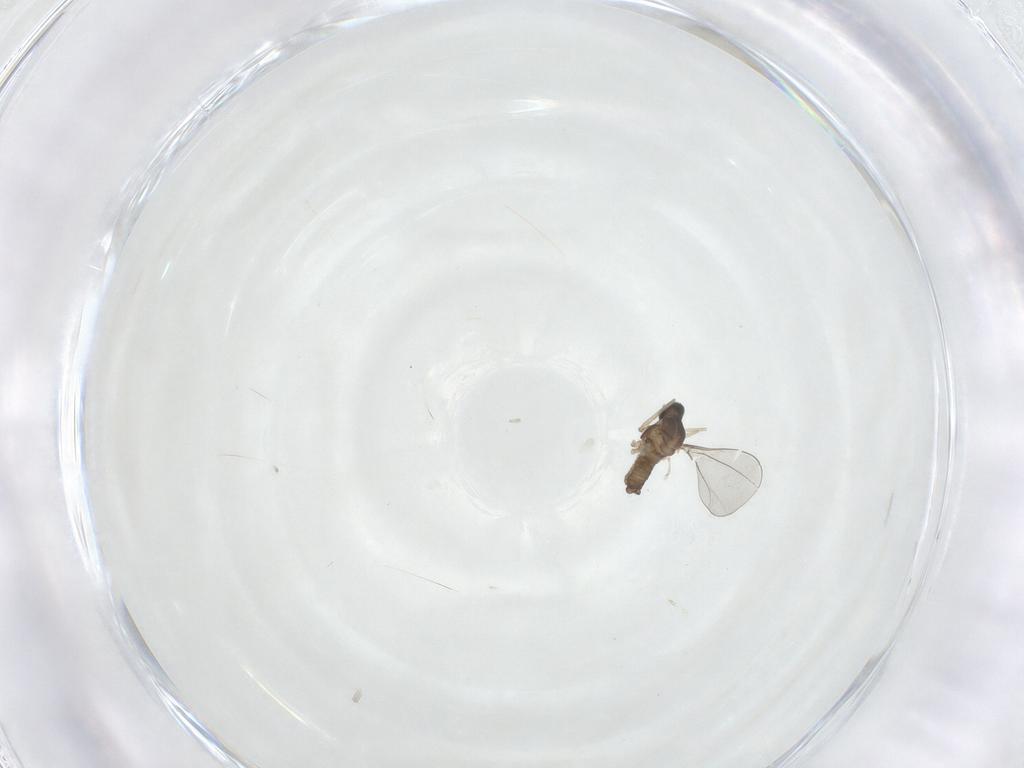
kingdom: Animalia
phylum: Arthropoda
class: Insecta
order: Diptera
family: Cecidomyiidae
